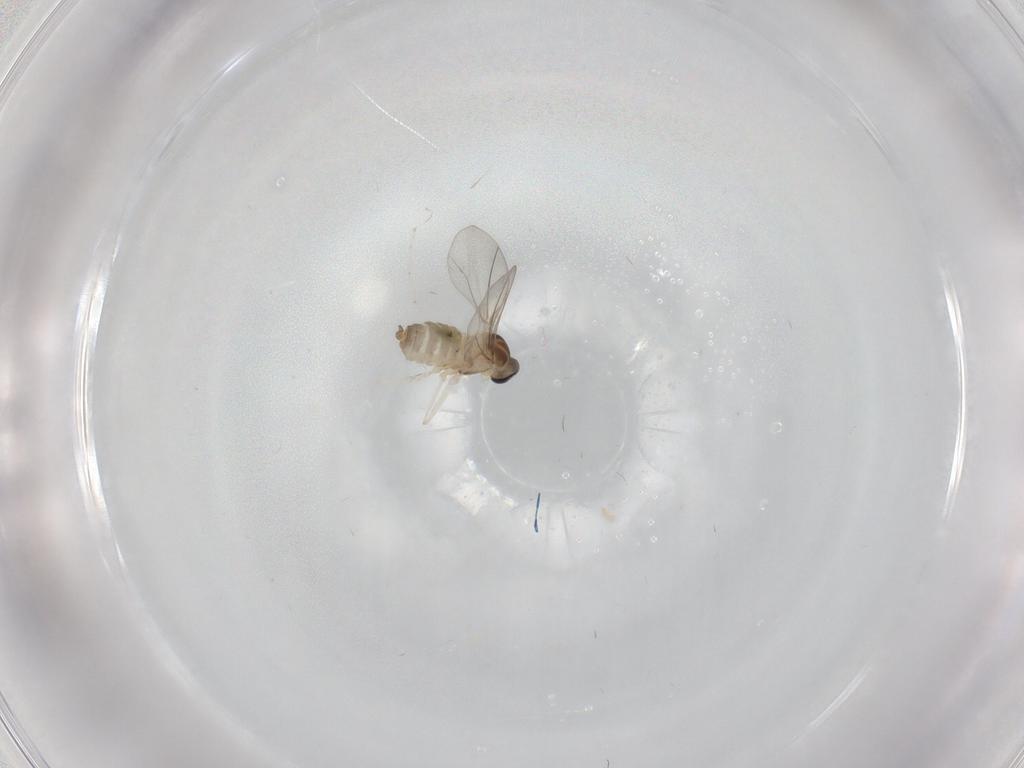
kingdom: Animalia
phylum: Arthropoda
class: Insecta
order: Diptera
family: Cecidomyiidae
